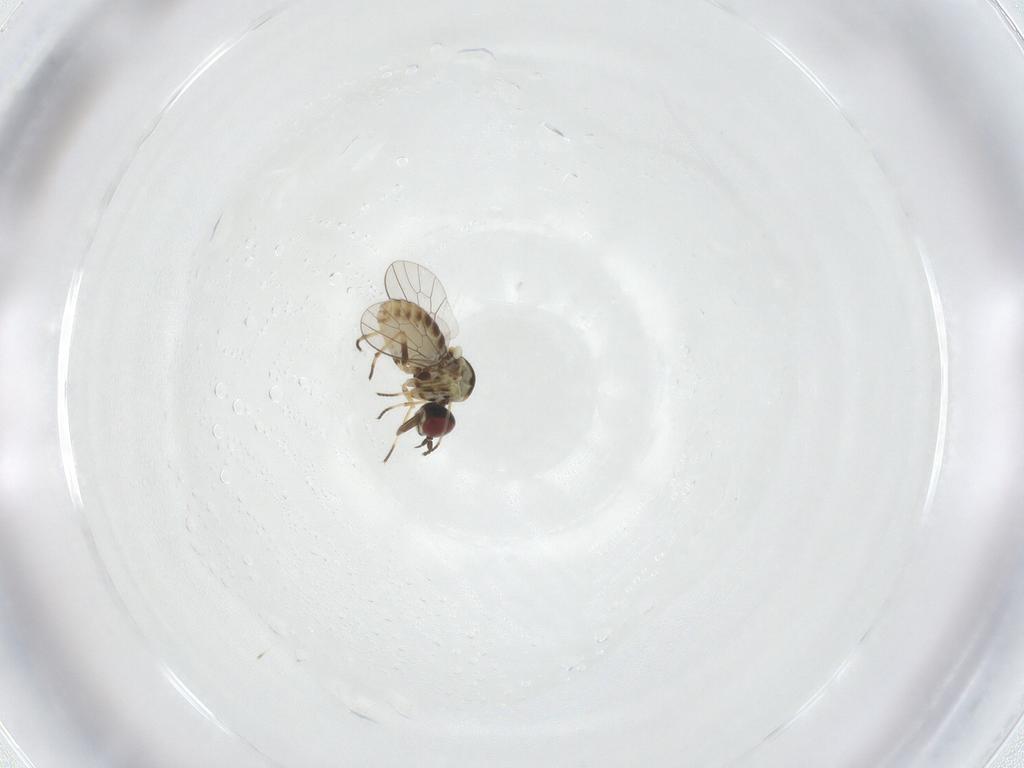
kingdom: Animalia
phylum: Arthropoda
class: Insecta
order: Diptera
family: Mythicomyiidae
